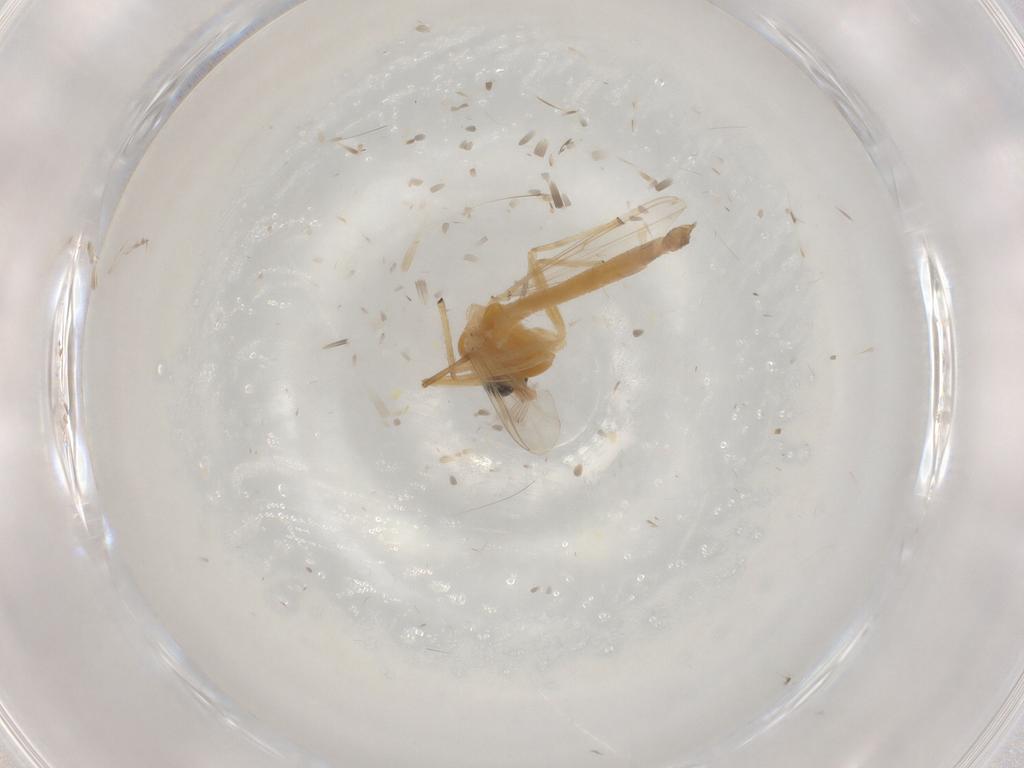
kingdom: Animalia
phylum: Arthropoda
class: Insecta
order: Diptera
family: Chironomidae
